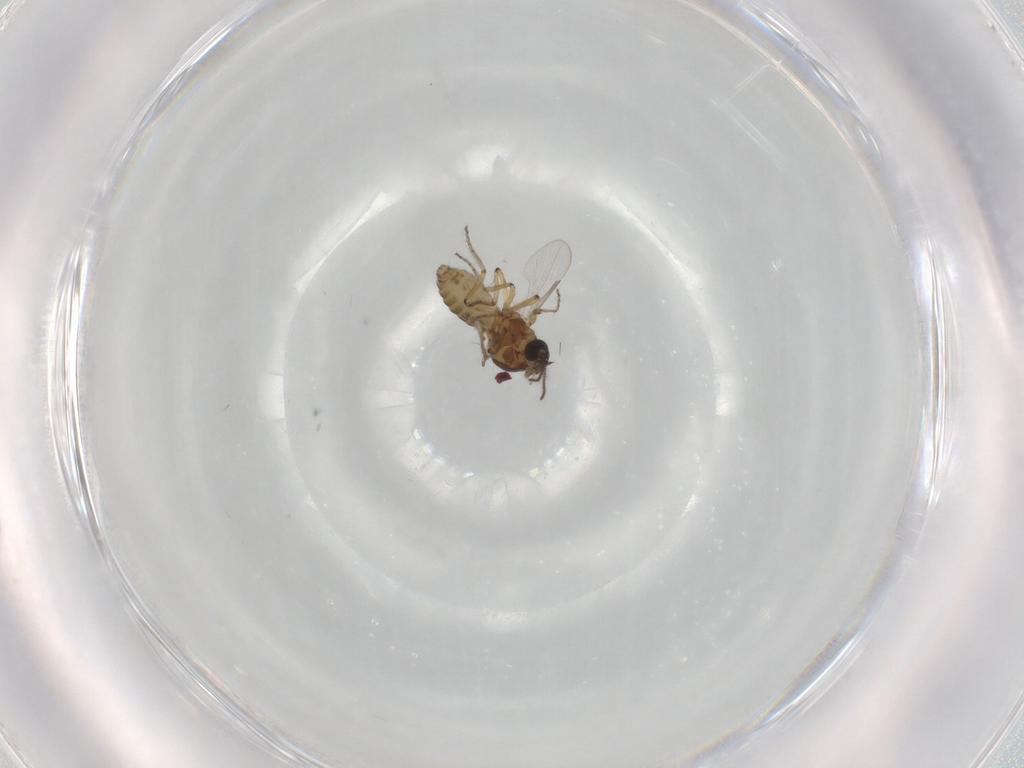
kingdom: Animalia
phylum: Arthropoda
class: Insecta
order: Diptera
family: Ceratopogonidae
